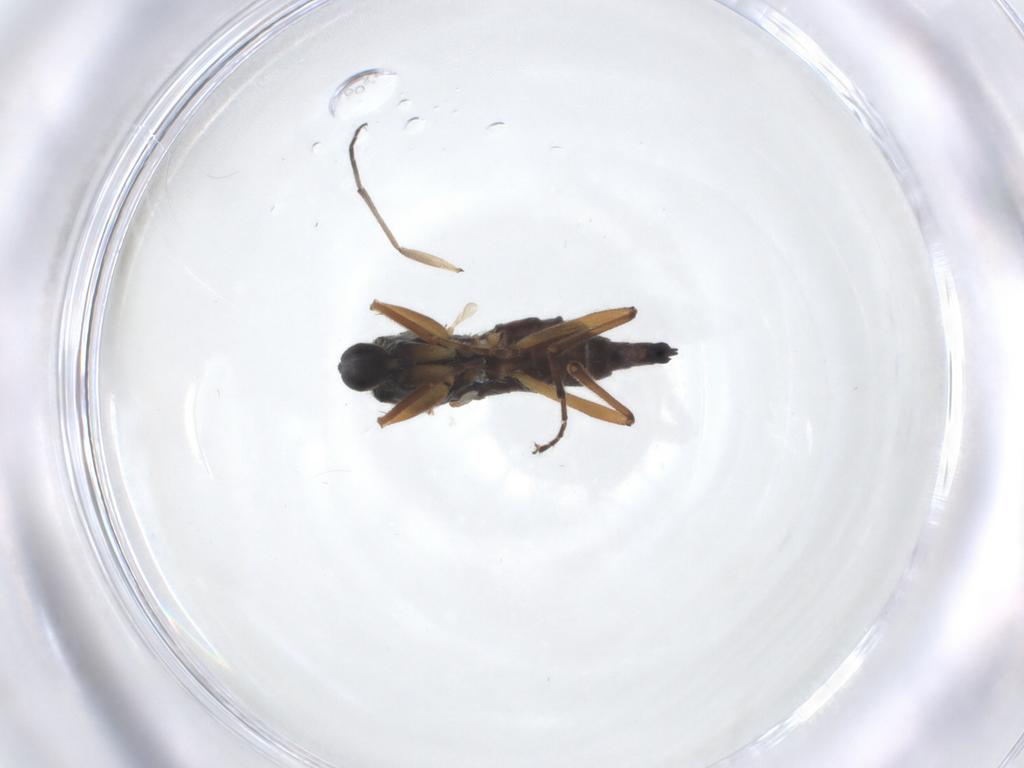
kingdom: Animalia
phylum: Arthropoda
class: Insecta
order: Diptera
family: Hybotidae
